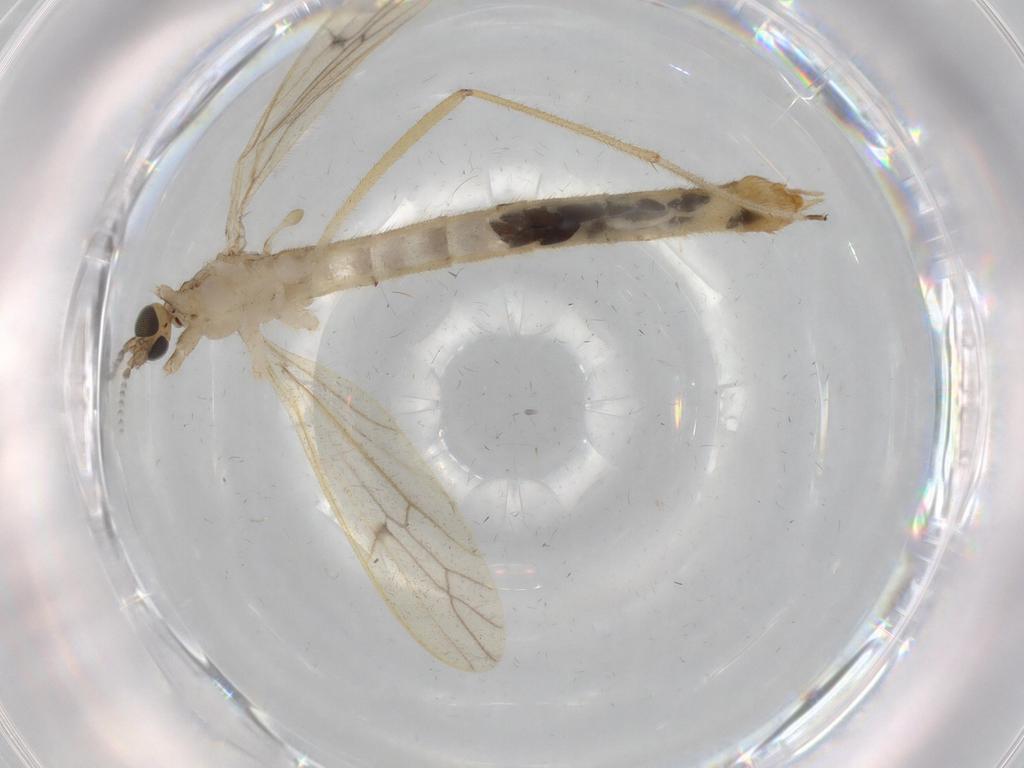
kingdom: Animalia
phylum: Arthropoda
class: Insecta
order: Diptera
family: Limoniidae
